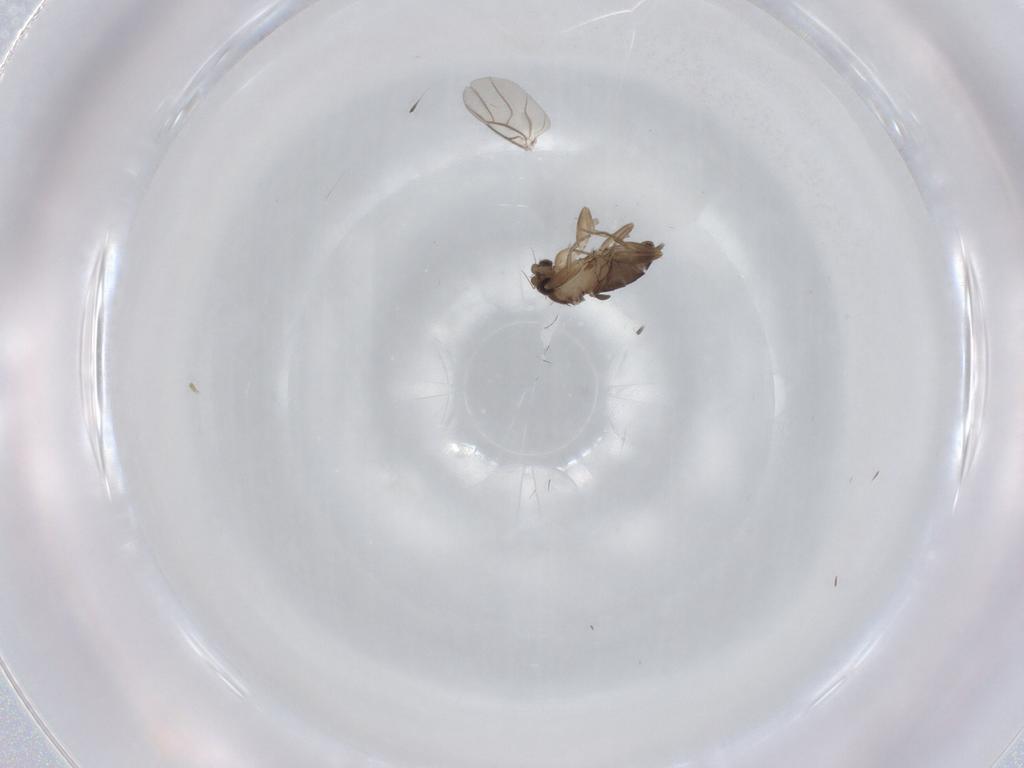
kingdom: Animalia
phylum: Arthropoda
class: Insecta
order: Diptera
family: Phoridae
